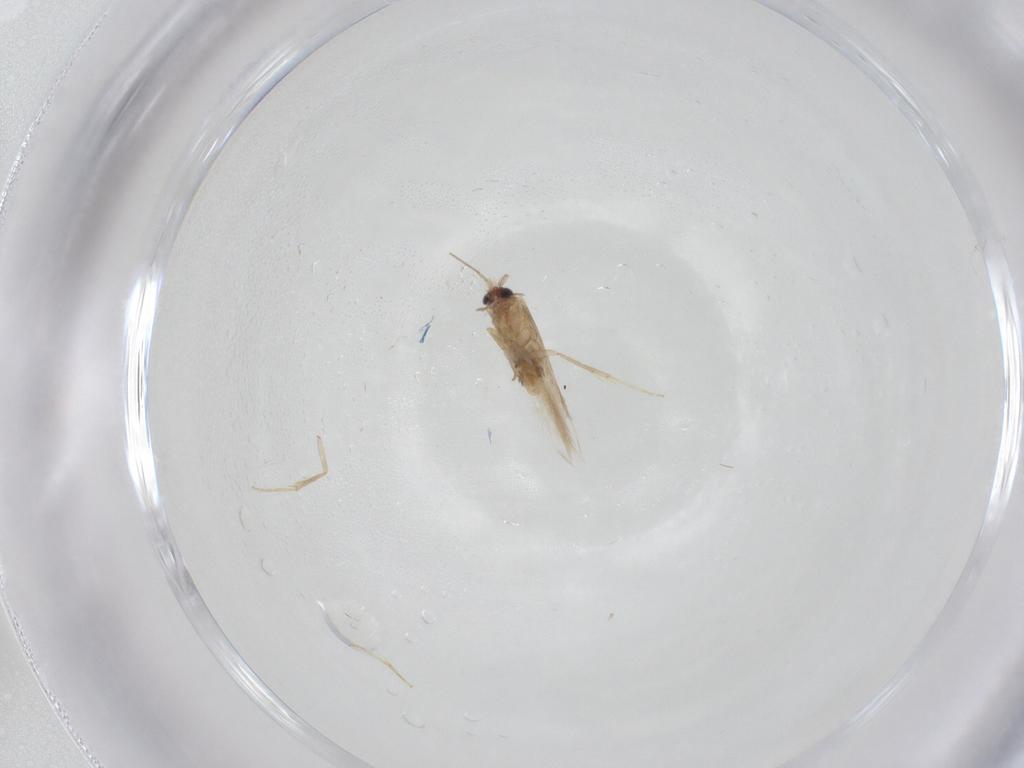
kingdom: Animalia
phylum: Arthropoda
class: Insecta
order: Lepidoptera
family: Nepticulidae
